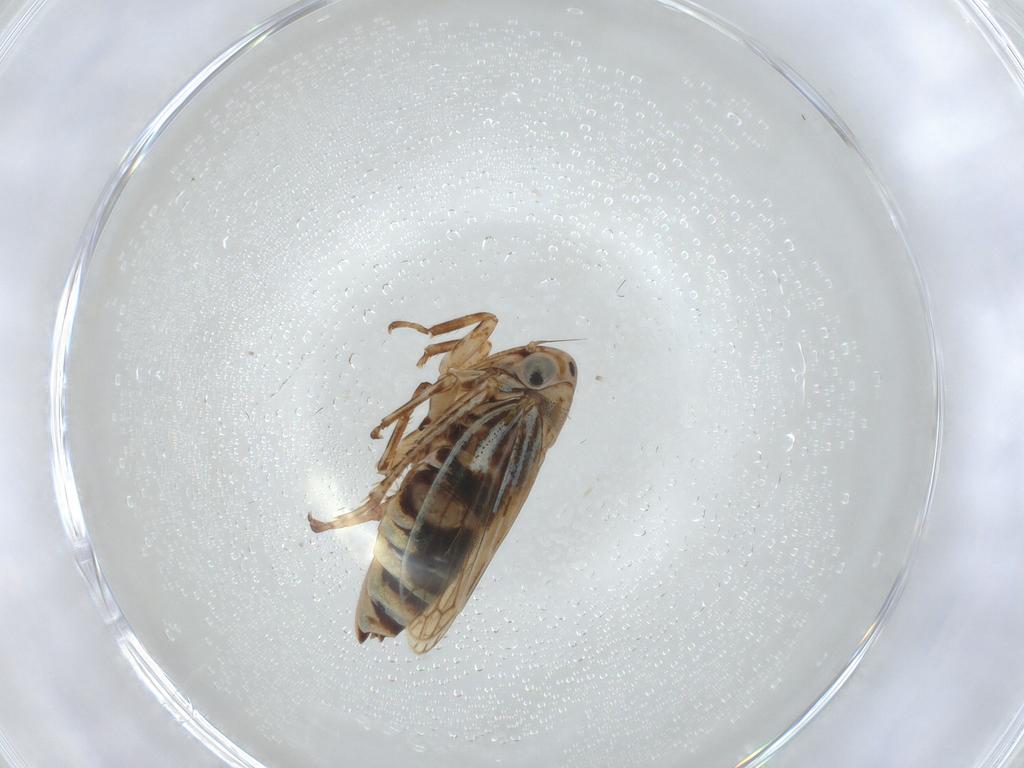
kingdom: Animalia
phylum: Arthropoda
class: Insecta
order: Hemiptera
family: Cicadellidae
